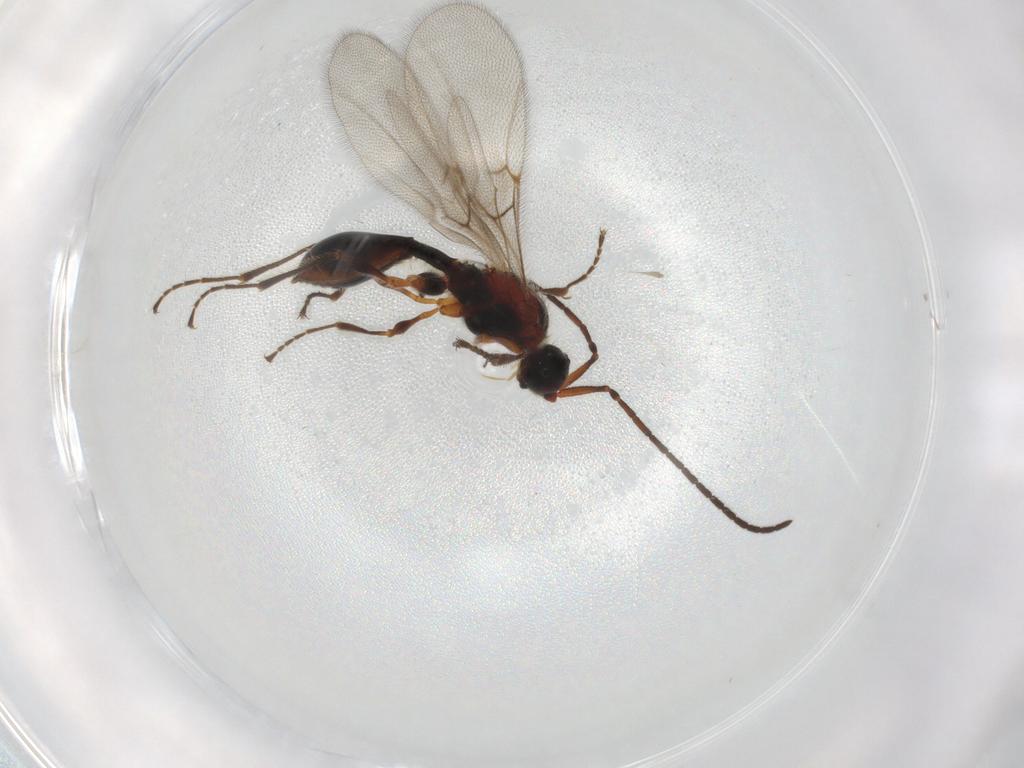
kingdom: Animalia
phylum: Arthropoda
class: Insecta
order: Hymenoptera
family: Diapriidae
